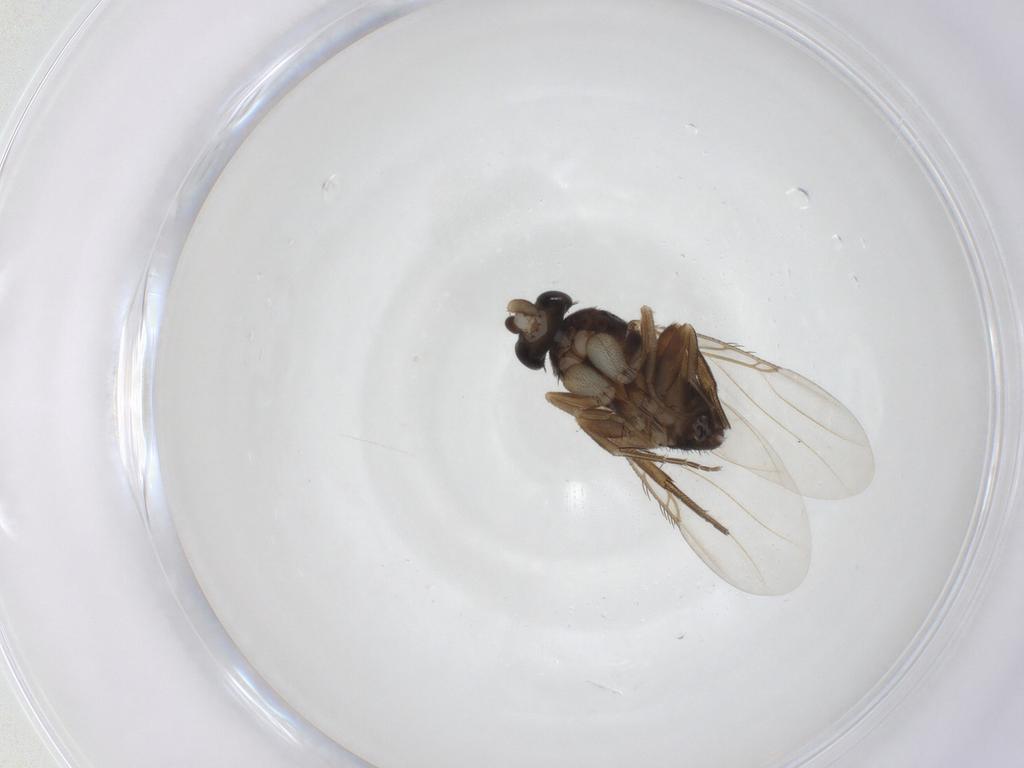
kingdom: Animalia
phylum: Arthropoda
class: Insecta
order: Diptera
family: Phoridae
